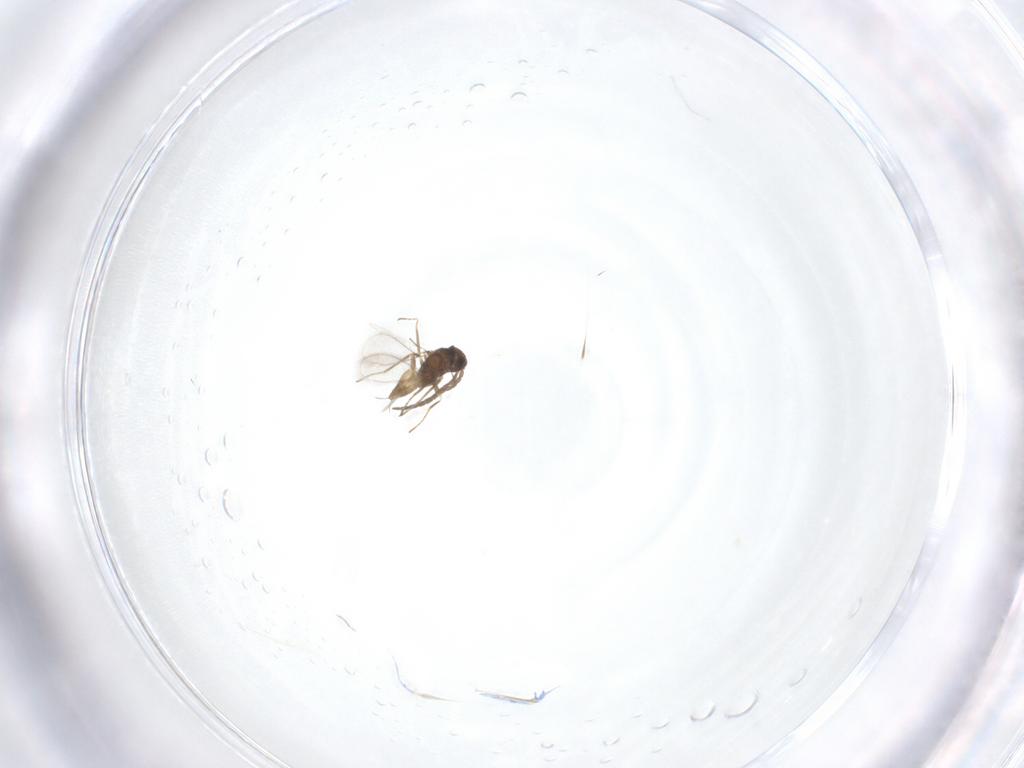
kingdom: Animalia
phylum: Arthropoda
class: Insecta
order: Hymenoptera
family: Mymaridae
